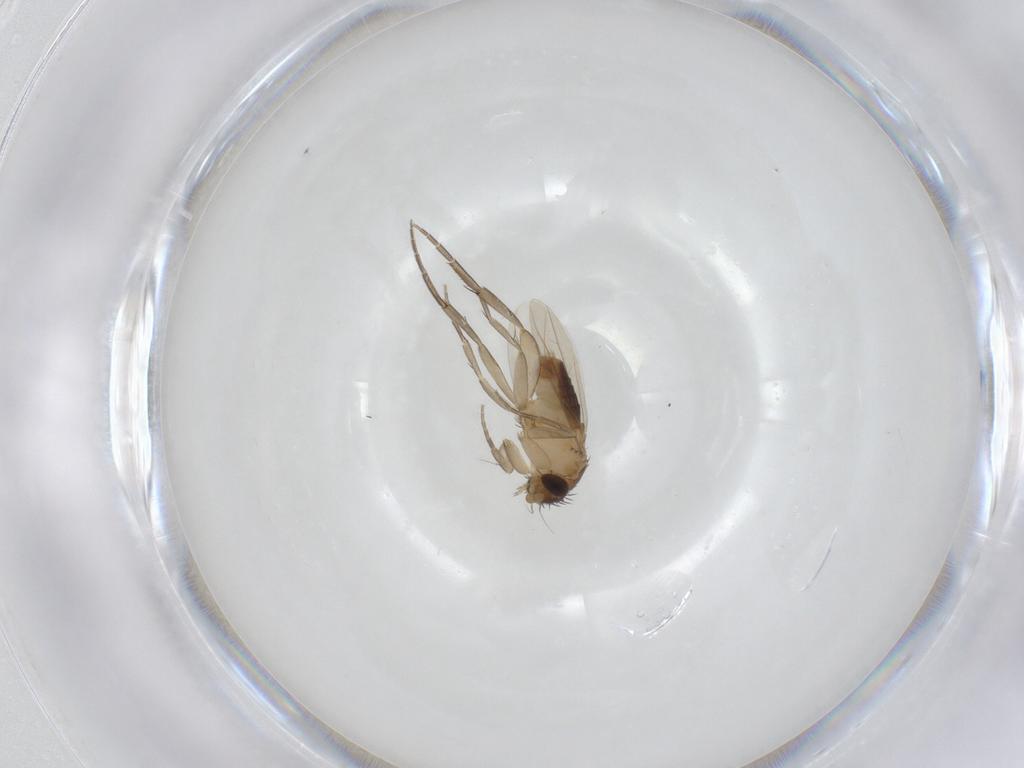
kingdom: Animalia
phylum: Arthropoda
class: Insecta
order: Diptera
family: Phoridae
